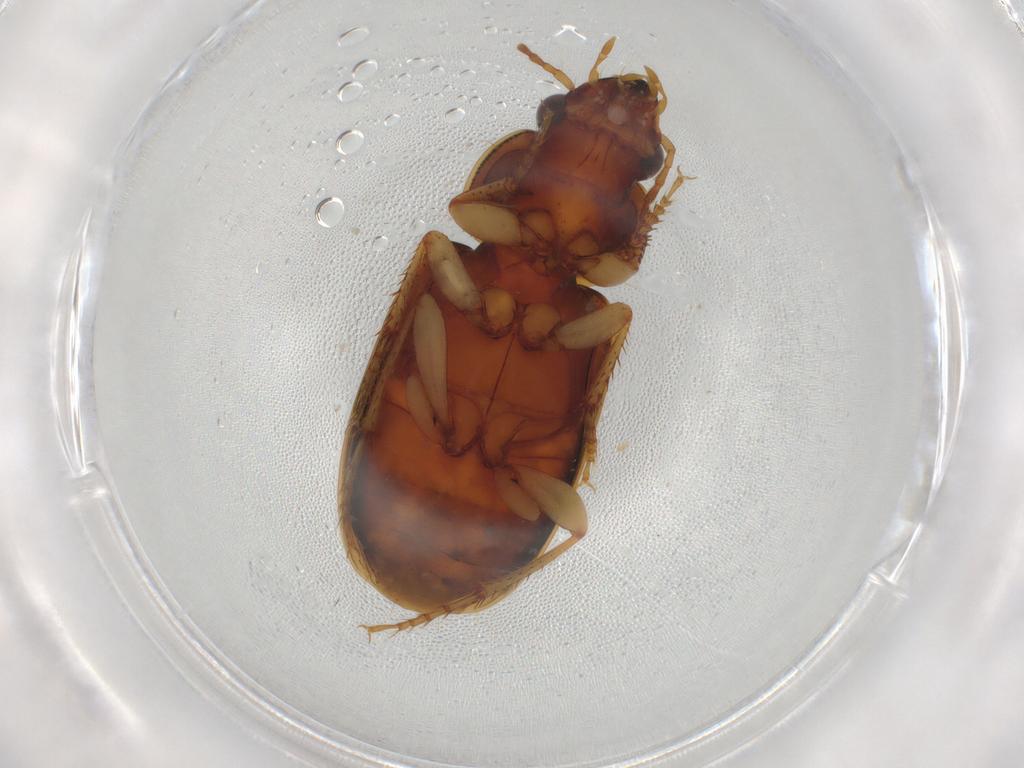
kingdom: Animalia
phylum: Arthropoda
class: Insecta
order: Coleoptera
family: Carabidae
